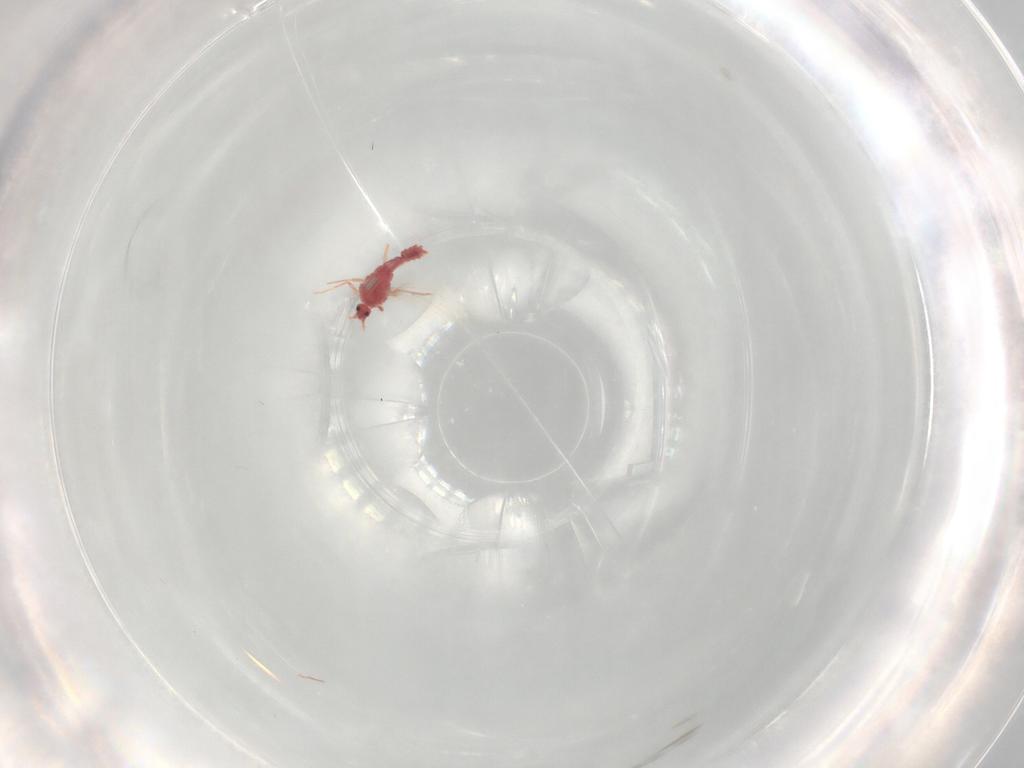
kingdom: Animalia
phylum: Arthropoda
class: Insecta
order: Hemiptera
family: Pseudococcidae
